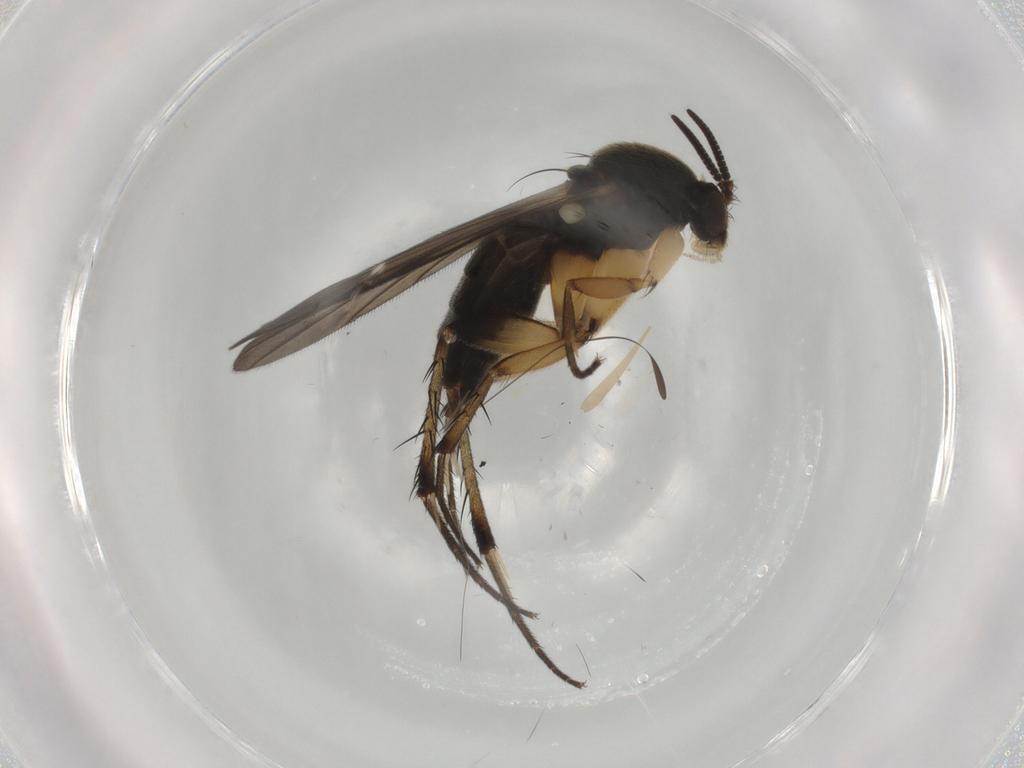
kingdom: Animalia
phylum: Arthropoda
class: Insecta
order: Diptera
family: Mycetophilidae
